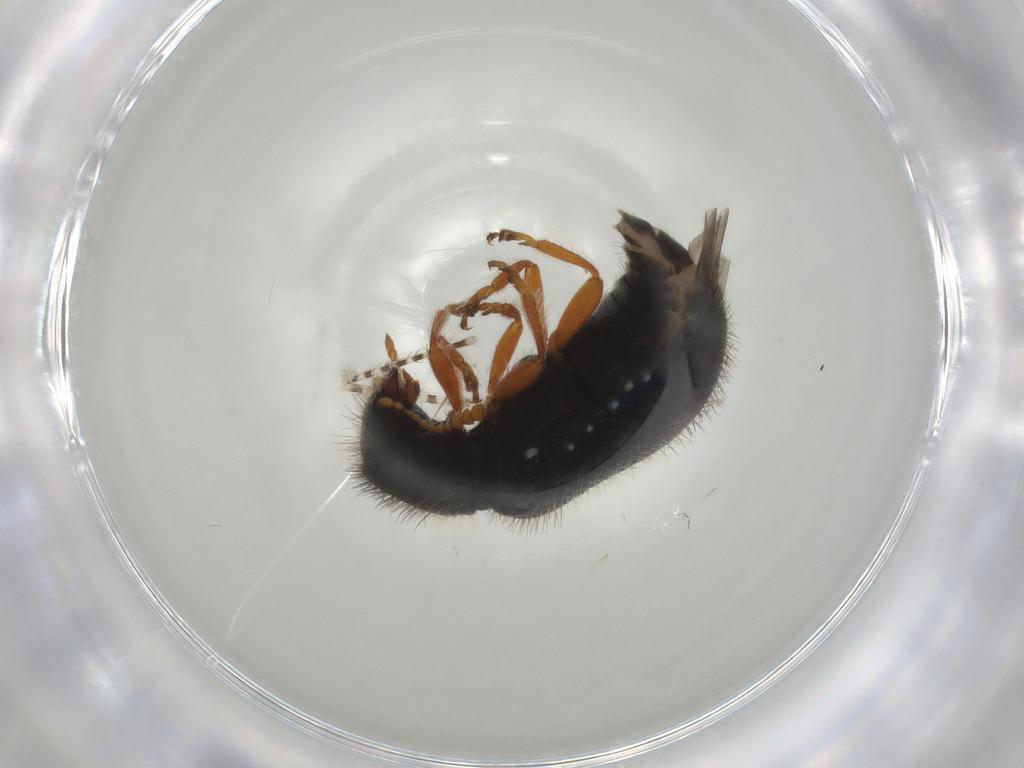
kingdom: Animalia
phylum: Arthropoda
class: Insecta
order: Coleoptera
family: Cleridae
